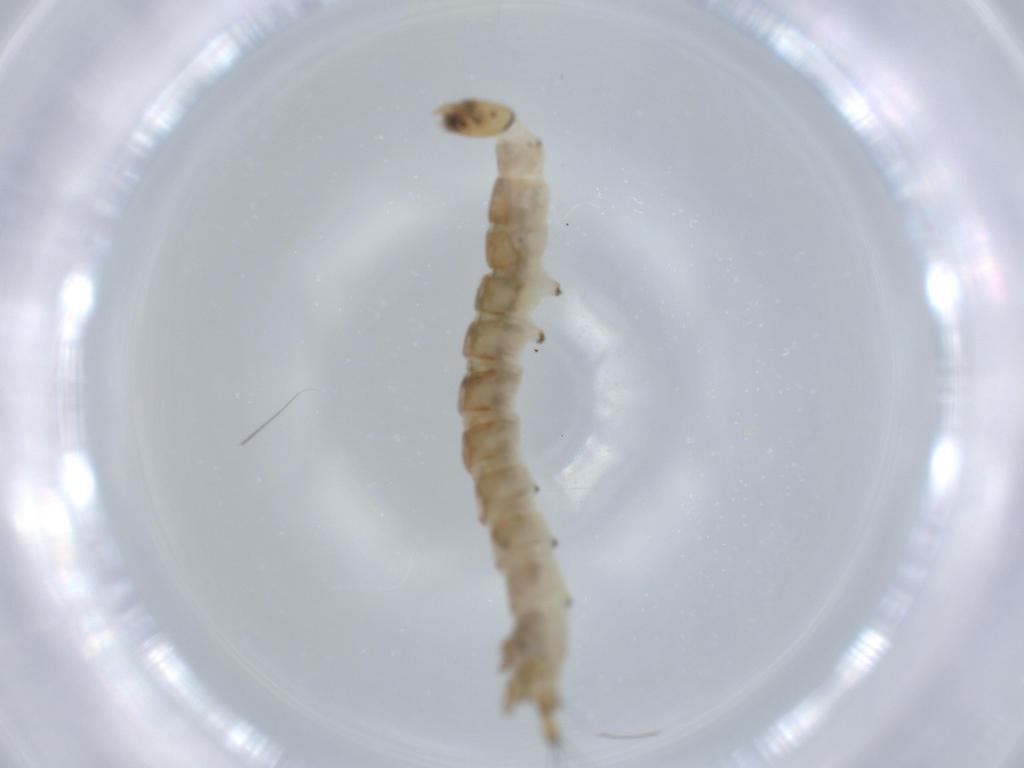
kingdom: Animalia
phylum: Arthropoda
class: Insecta
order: Diptera
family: Dixidae
